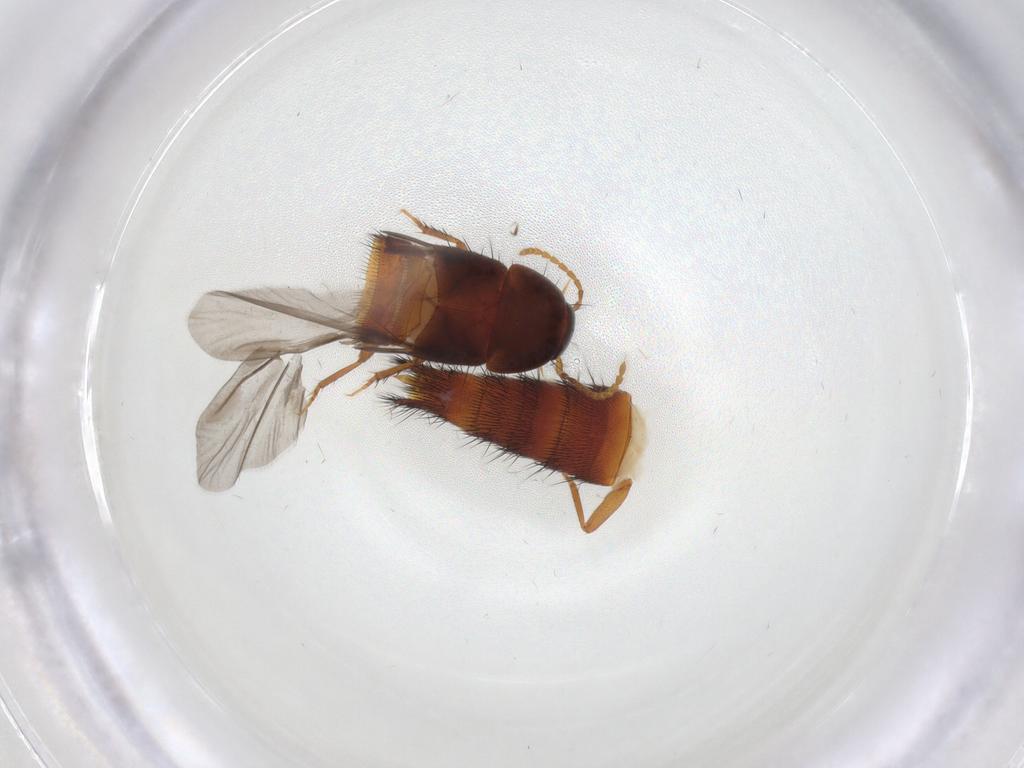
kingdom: Animalia
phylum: Arthropoda
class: Insecta
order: Coleoptera
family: Staphylinidae
